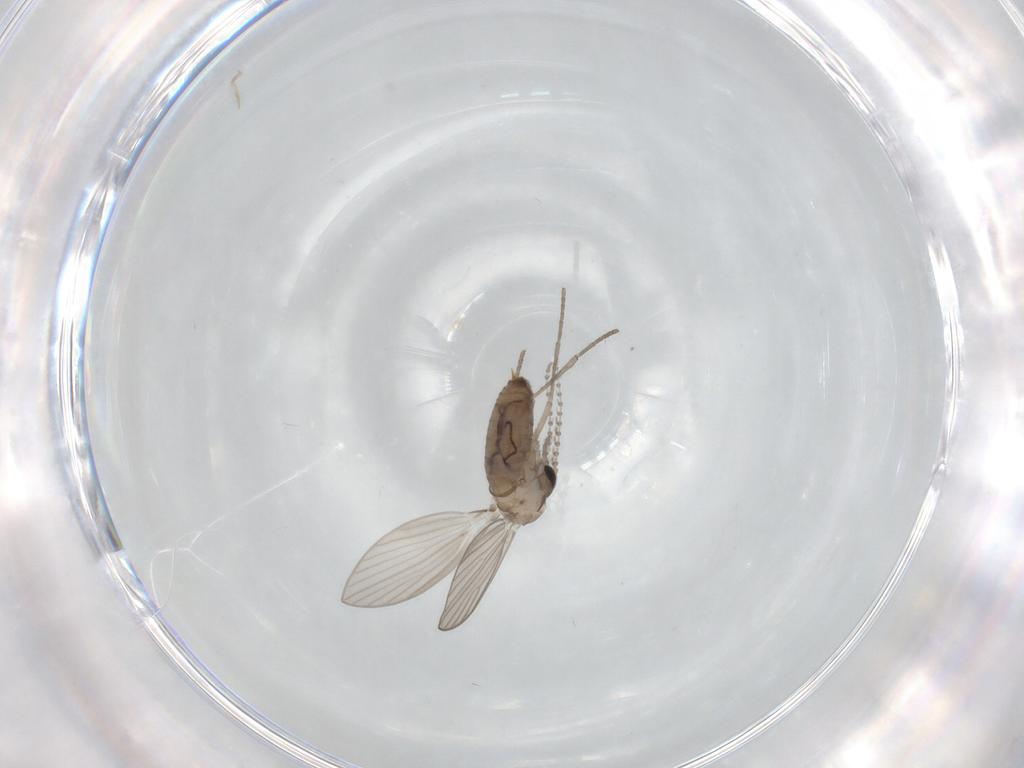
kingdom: Animalia
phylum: Arthropoda
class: Insecta
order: Diptera
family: Psychodidae
